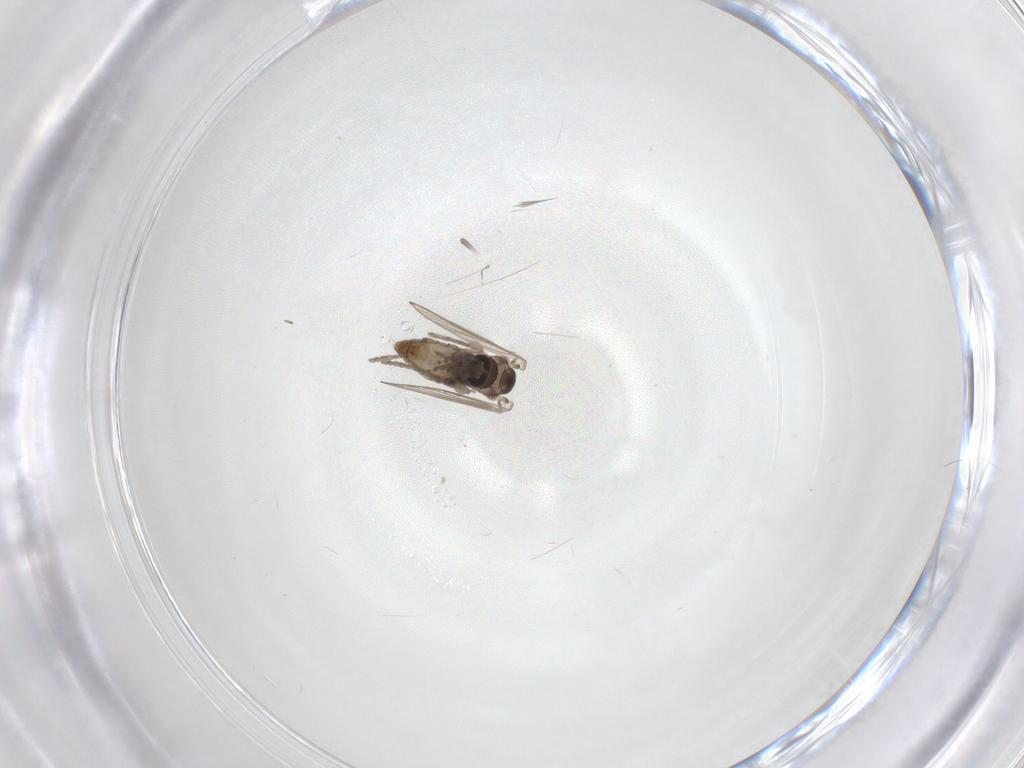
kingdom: Animalia
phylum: Arthropoda
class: Insecta
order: Diptera
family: Psychodidae
